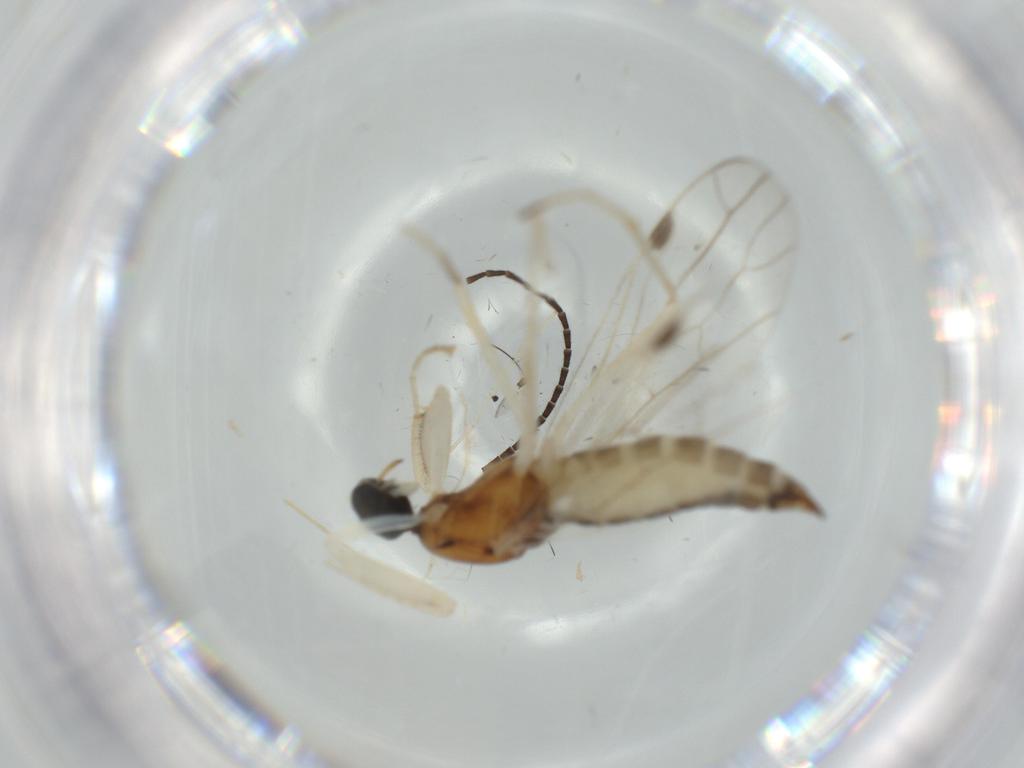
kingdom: Animalia
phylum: Arthropoda
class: Insecta
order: Diptera
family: Empididae
